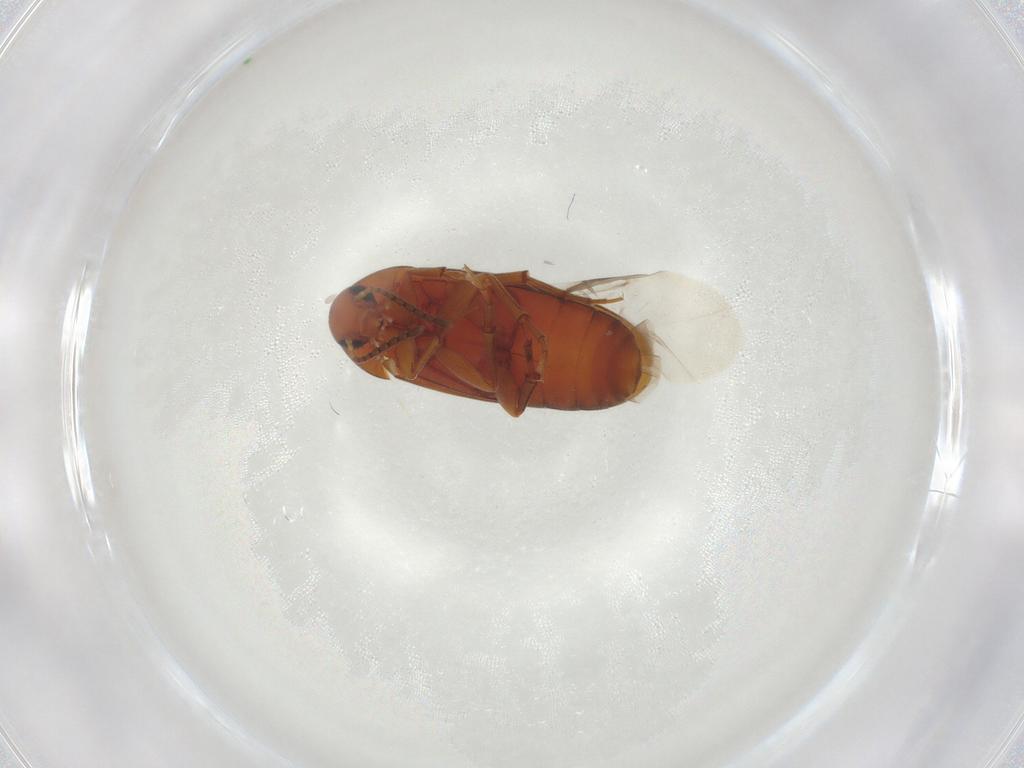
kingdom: Animalia
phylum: Arthropoda
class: Insecta
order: Coleoptera
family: Scraptiidae
